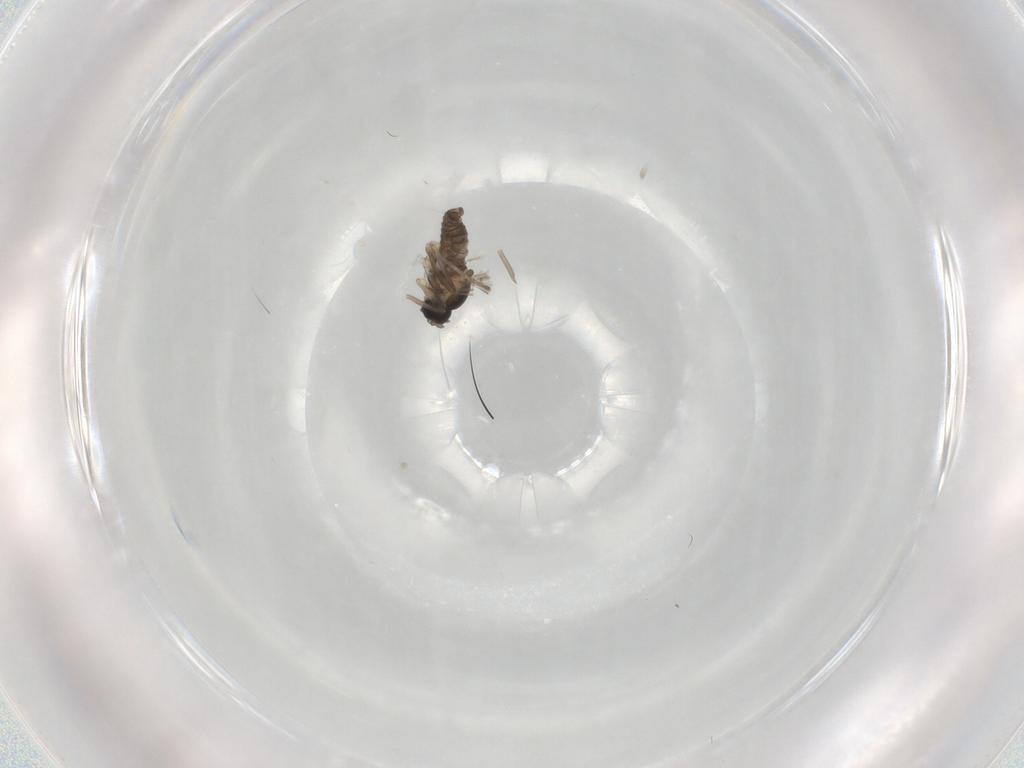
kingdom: Animalia
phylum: Arthropoda
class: Insecta
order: Diptera
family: Cecidomyiidae
